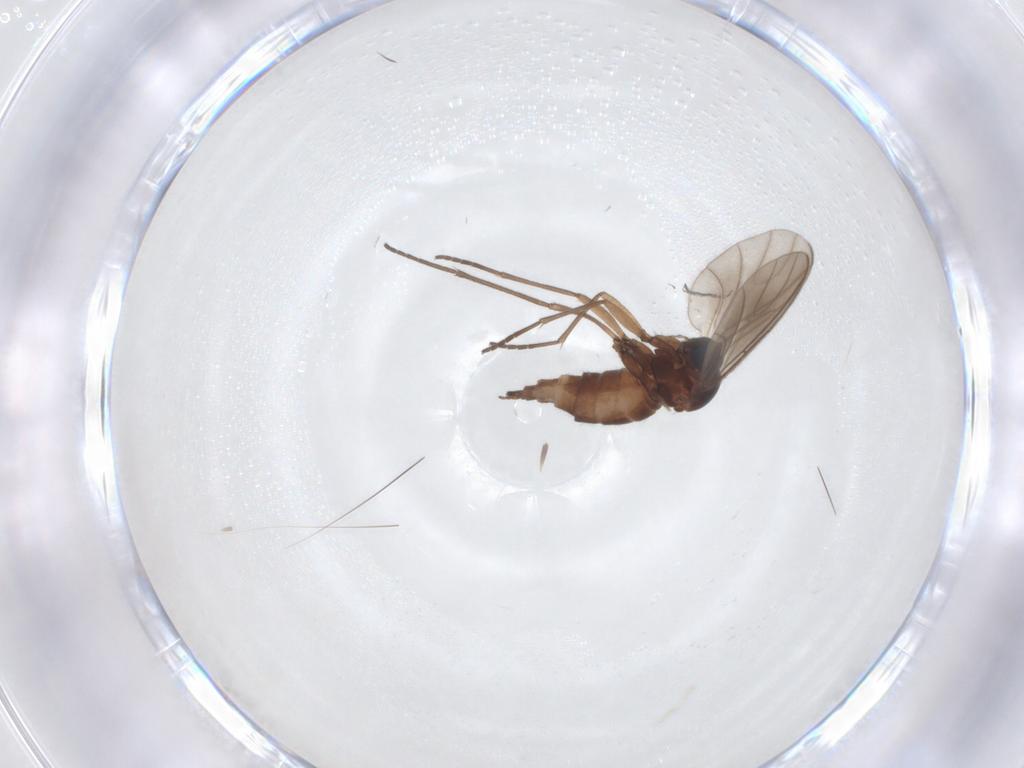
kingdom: Animalia
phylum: Arthropoda
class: Insecta
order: Diptera
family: Sciaridae
